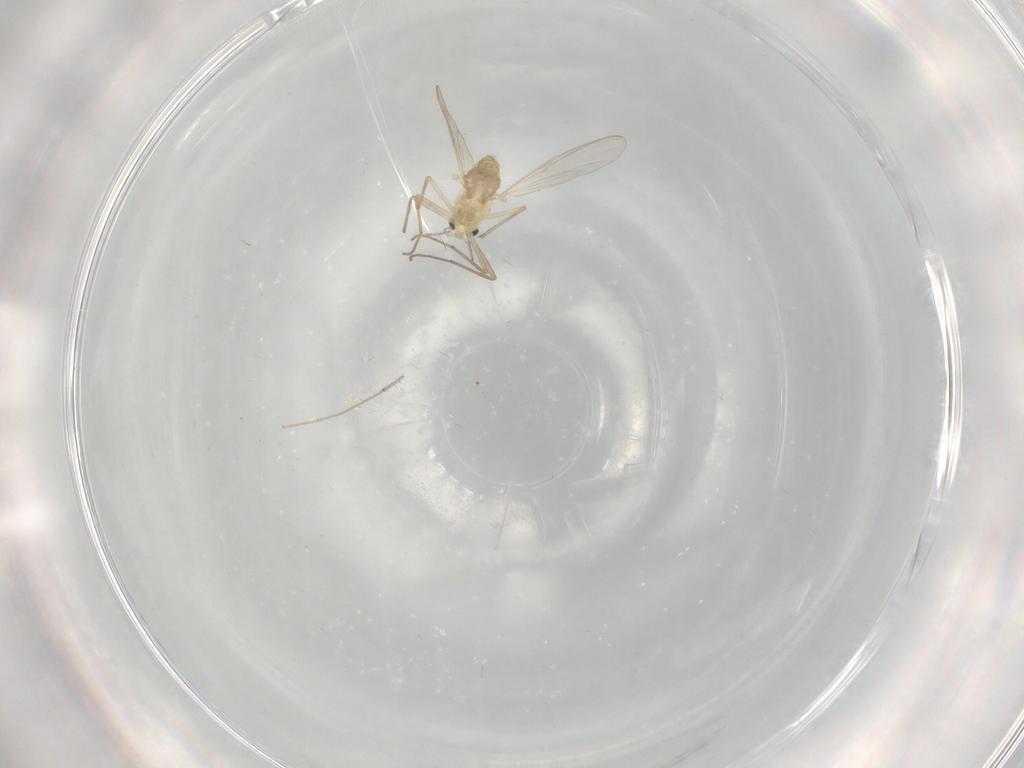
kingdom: Animalia
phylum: Arthropoda
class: Insecta
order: Diptera
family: Chironomidae
